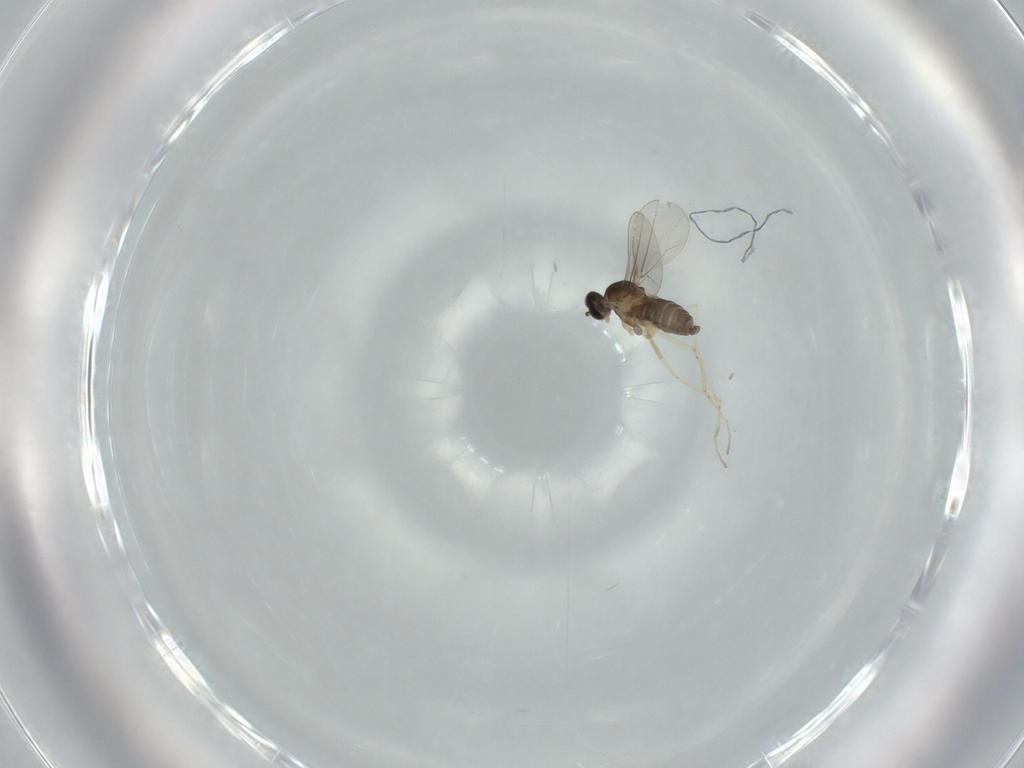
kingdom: Animalia
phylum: Arthropoda
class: Insecta
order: Diptera
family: Cecidomyiidae
